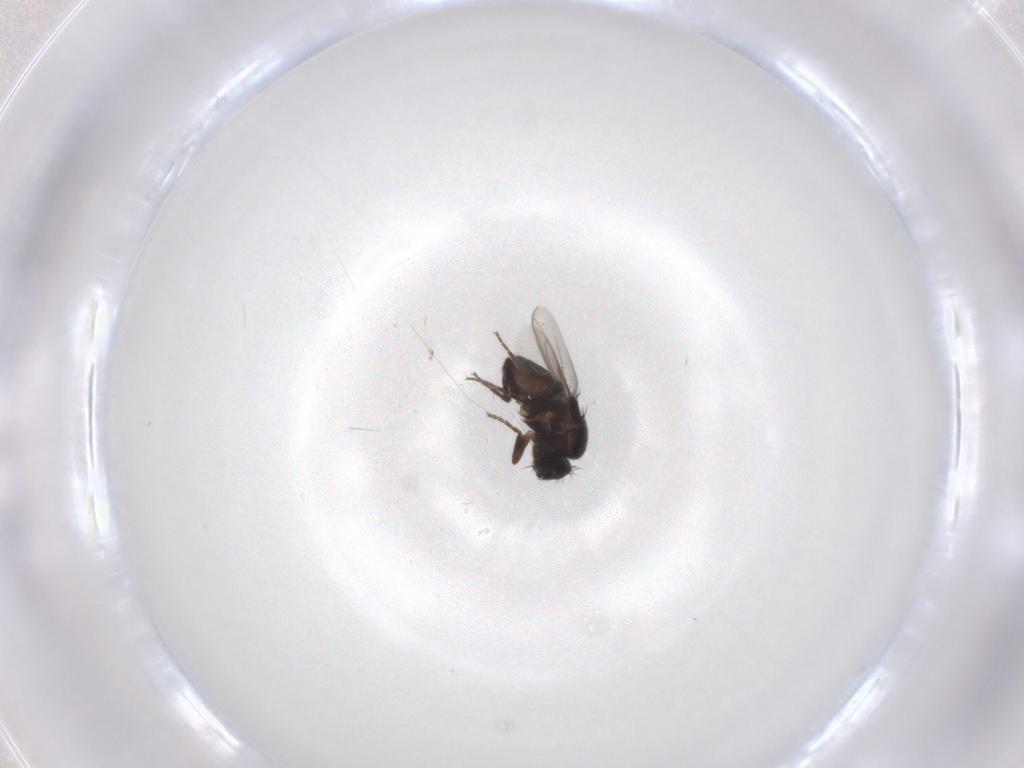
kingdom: Animalia
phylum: Arthropoda
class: Insecta
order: Diptera
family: Sphaeroceridae
